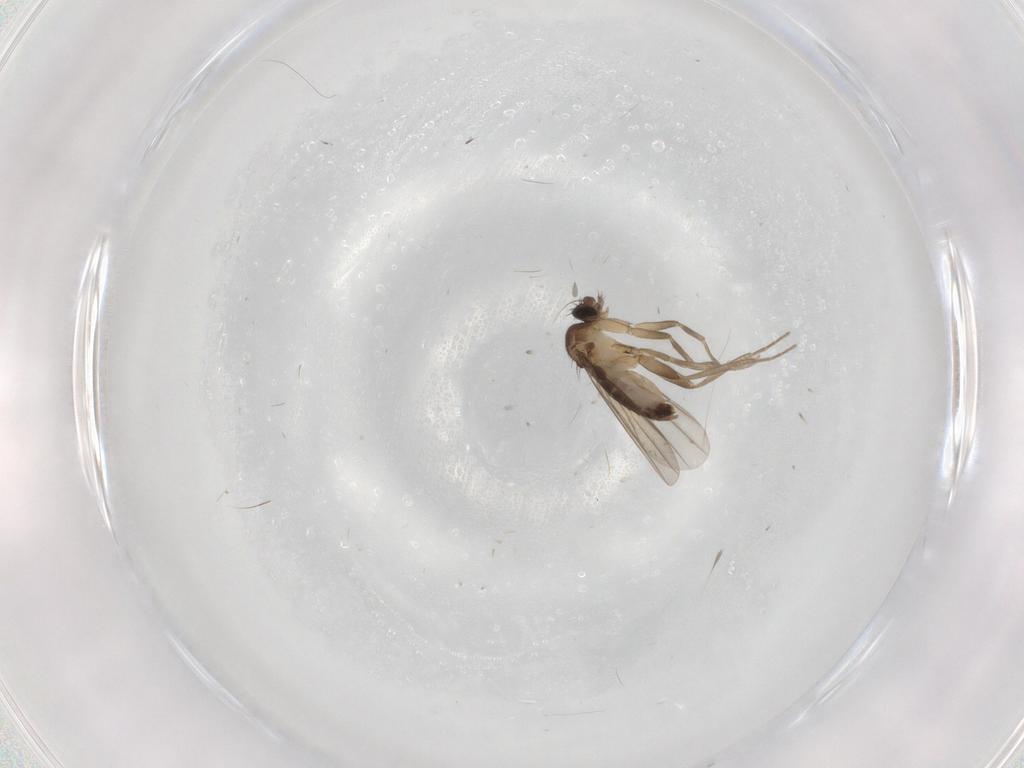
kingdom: Animalia
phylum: Arthropoda
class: Insecta
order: Diptera
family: Phoridae
